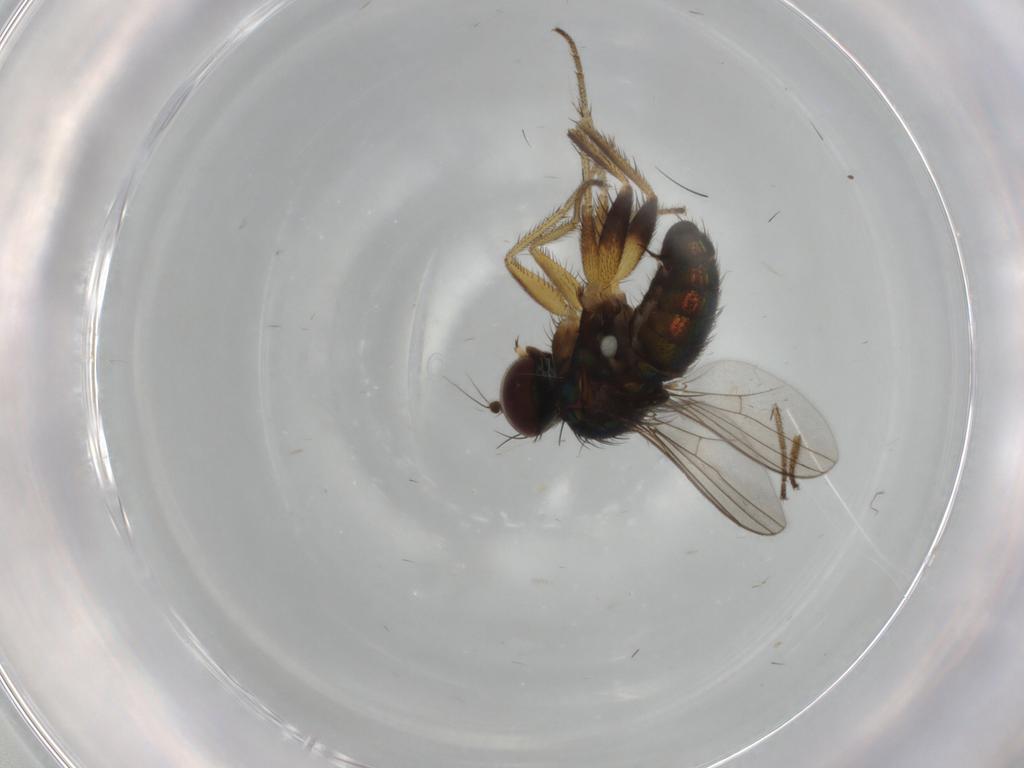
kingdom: Animalia
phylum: Arthropoda
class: Insecta
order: Diptera
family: Dolichopodidae
